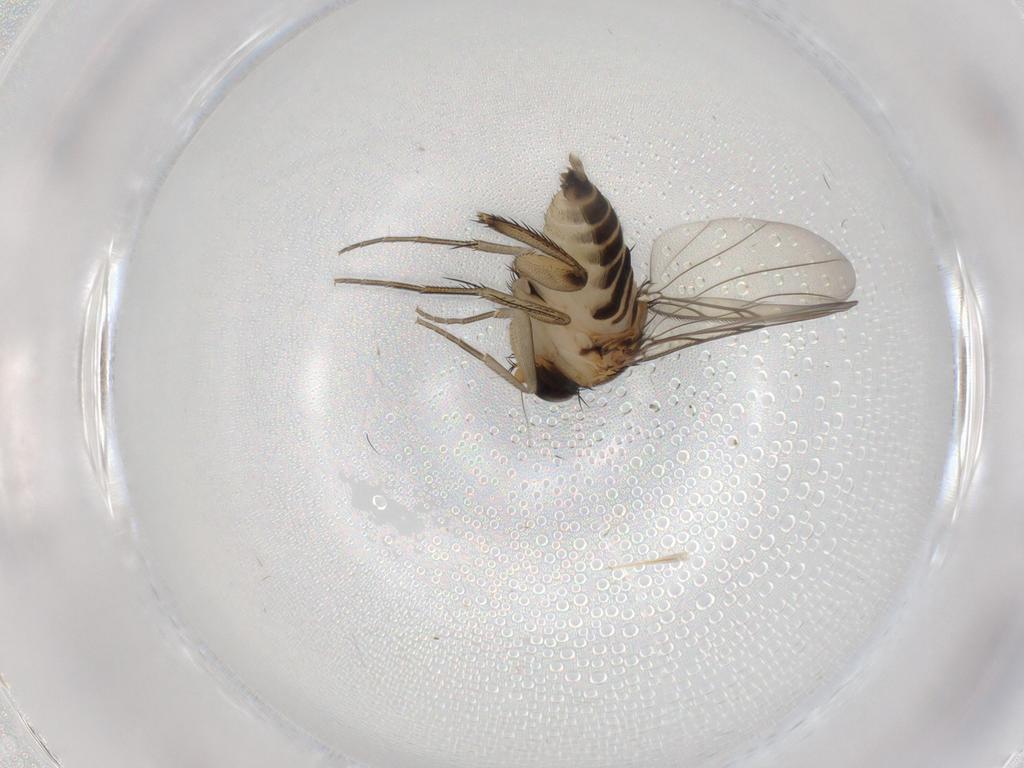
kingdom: Animalia
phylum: Arthropoda
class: Insecta
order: Diptera
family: Phoridae
